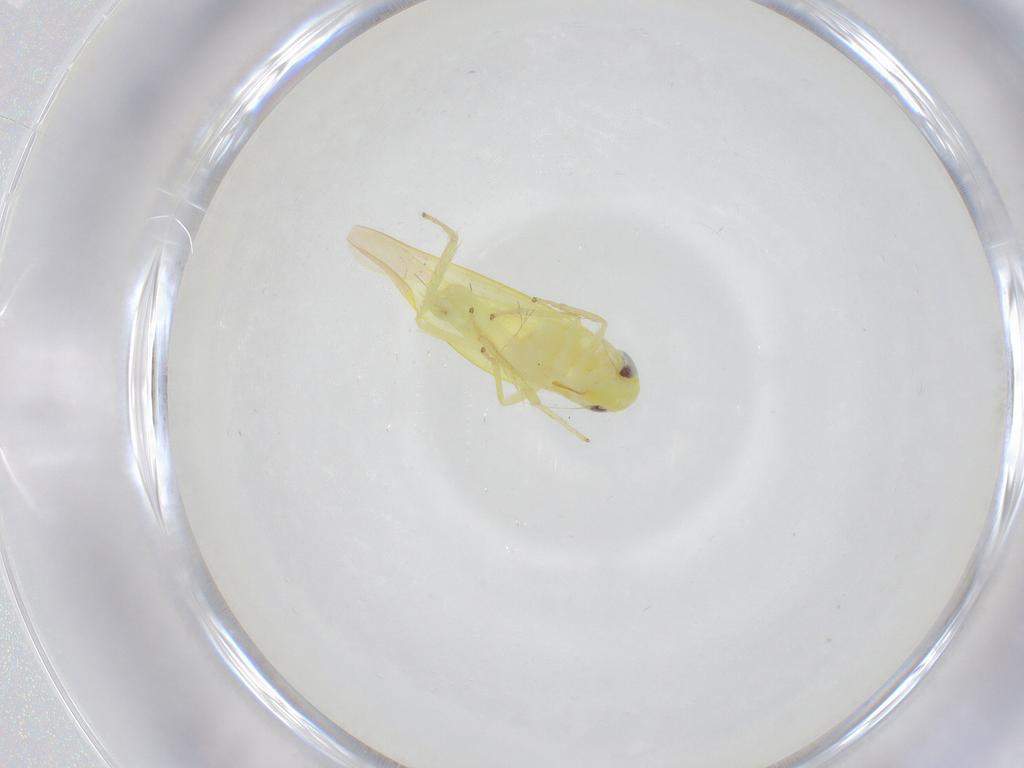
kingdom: Animalia
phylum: Arthropoda
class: Insecta
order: Hemiptera
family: Cicadellidae
